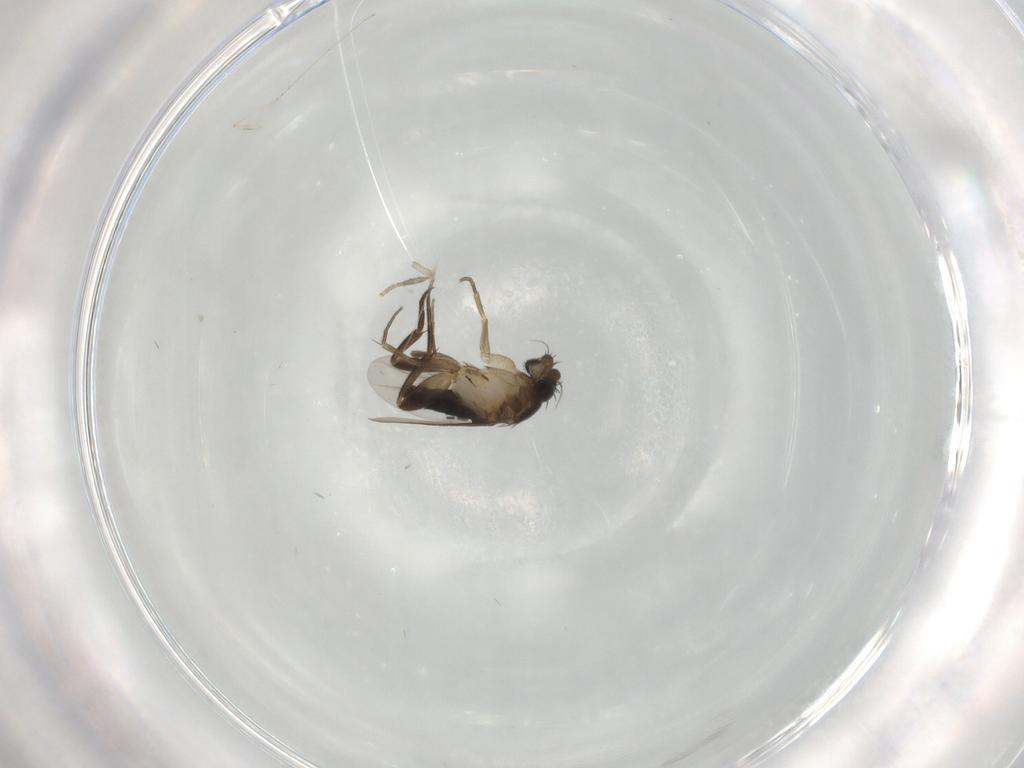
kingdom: Animalia
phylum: Arthropoda
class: Insecta
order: Diptera
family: Phoridae
